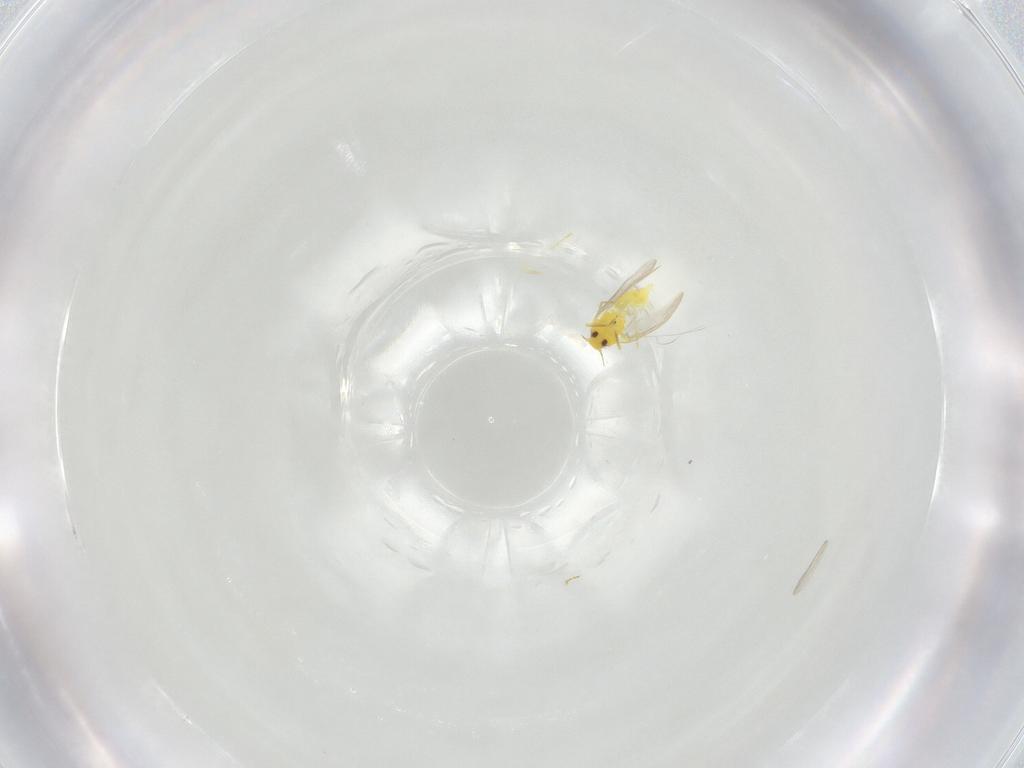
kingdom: Animalia
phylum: Arthropoda
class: Insecta
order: Hemiptera
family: Aleyrodidae
